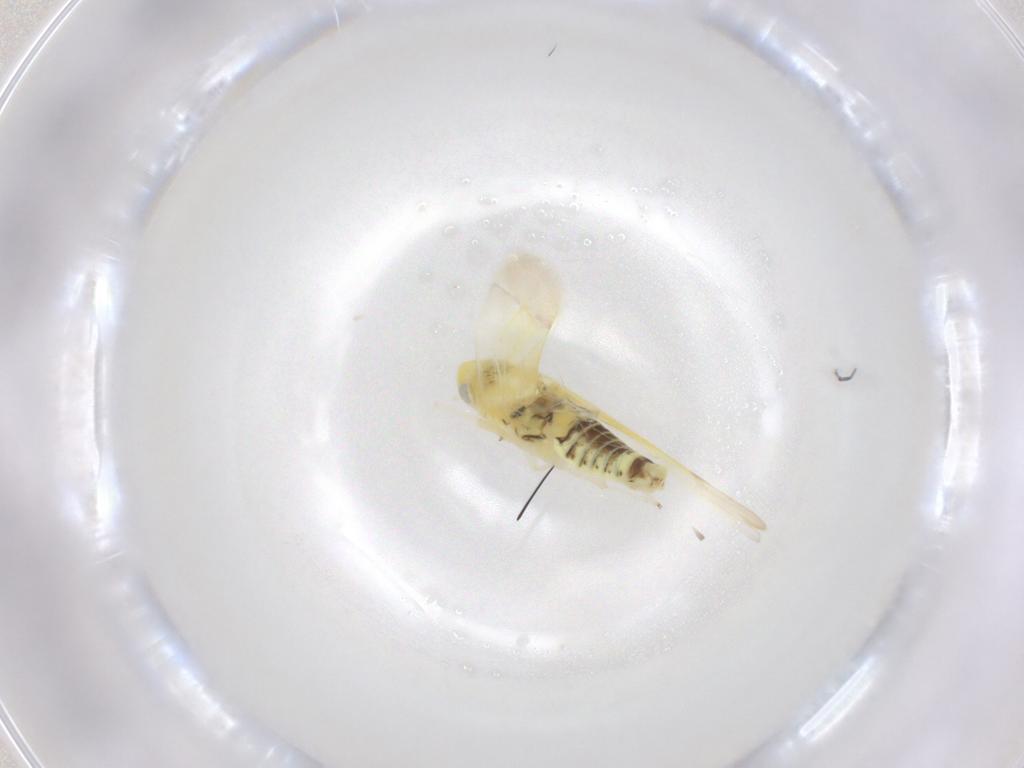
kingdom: Animalia
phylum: Arthropoda
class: Insecta
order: Hemiptera
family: Cicadellidae
